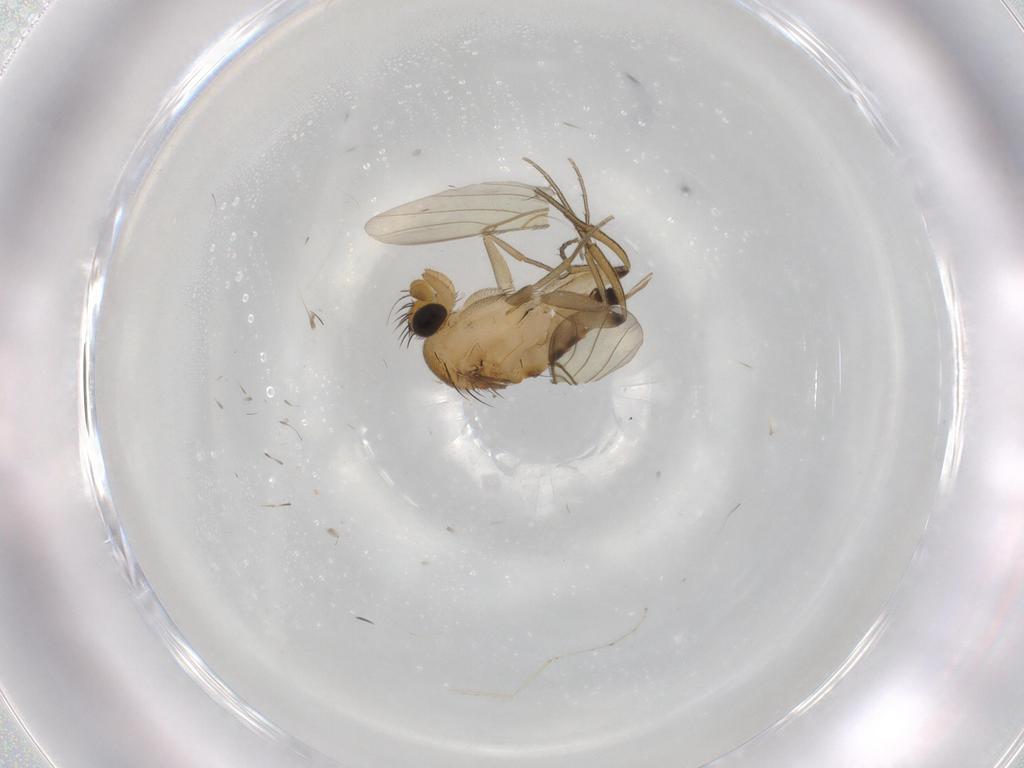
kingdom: Animalia
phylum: Arthropoda
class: Insecta
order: Diptera
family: Phoridae
